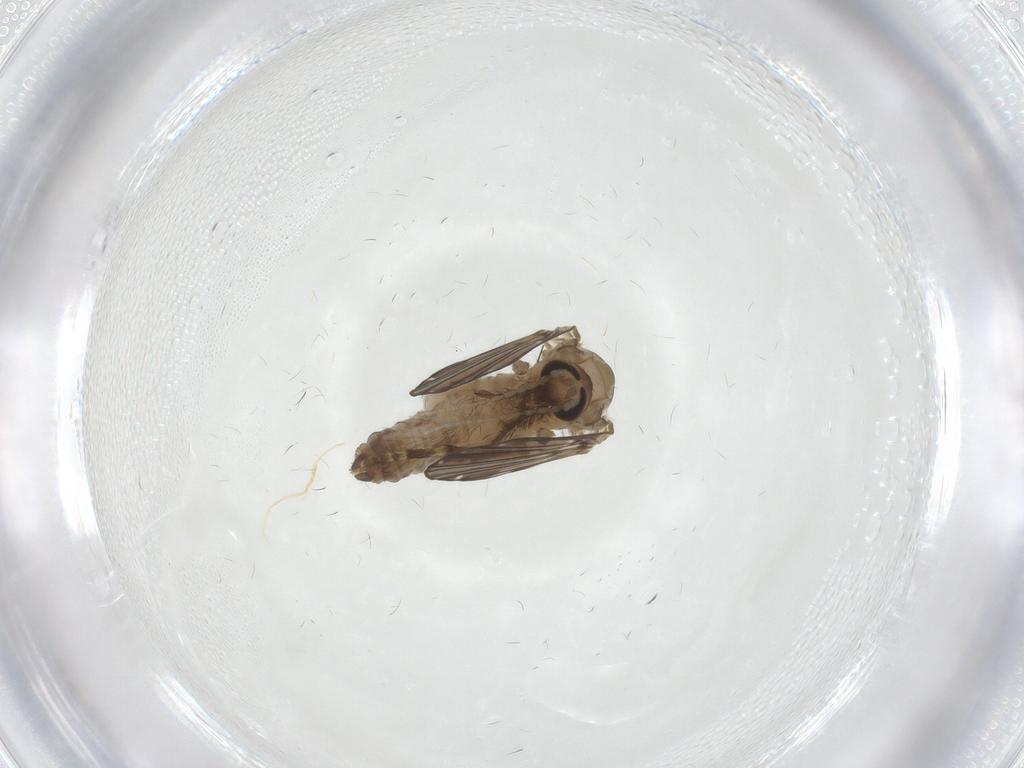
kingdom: Animalia
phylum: Arthropoda
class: Insecta
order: Diptera
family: Psychodidae
